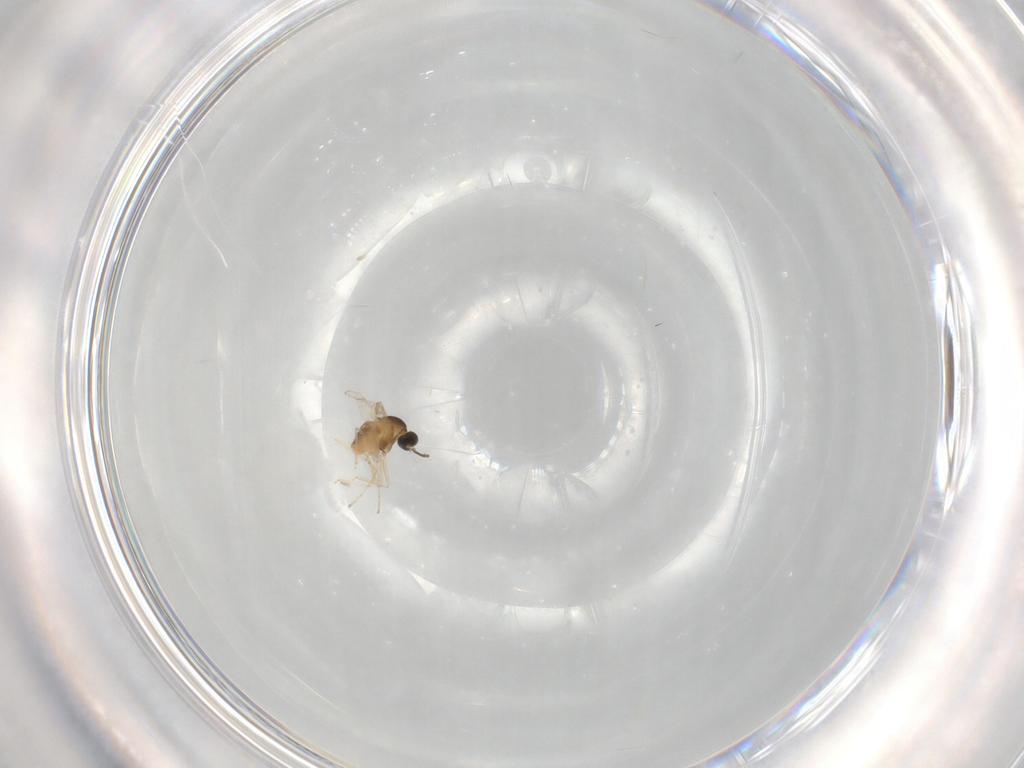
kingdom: Animalia
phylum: Arthropoda
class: Insecta
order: Diptera
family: Cecidomyiidae
